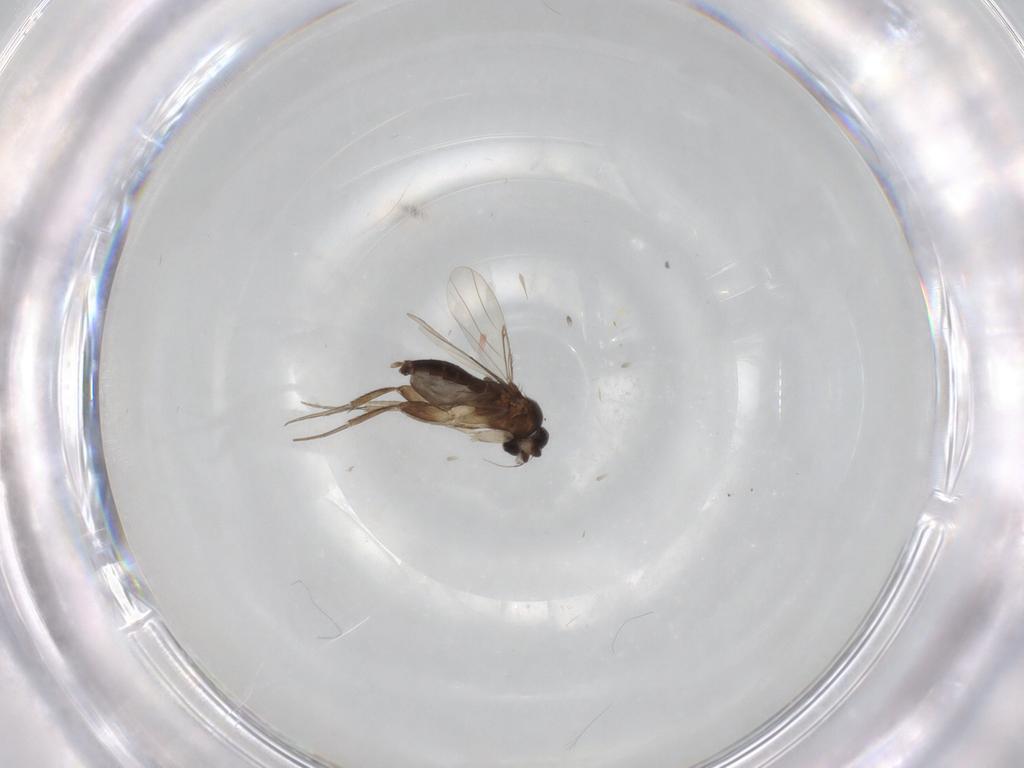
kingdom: Animalia
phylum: Arthropoda
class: Insecta
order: Diptera
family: Phoridae
